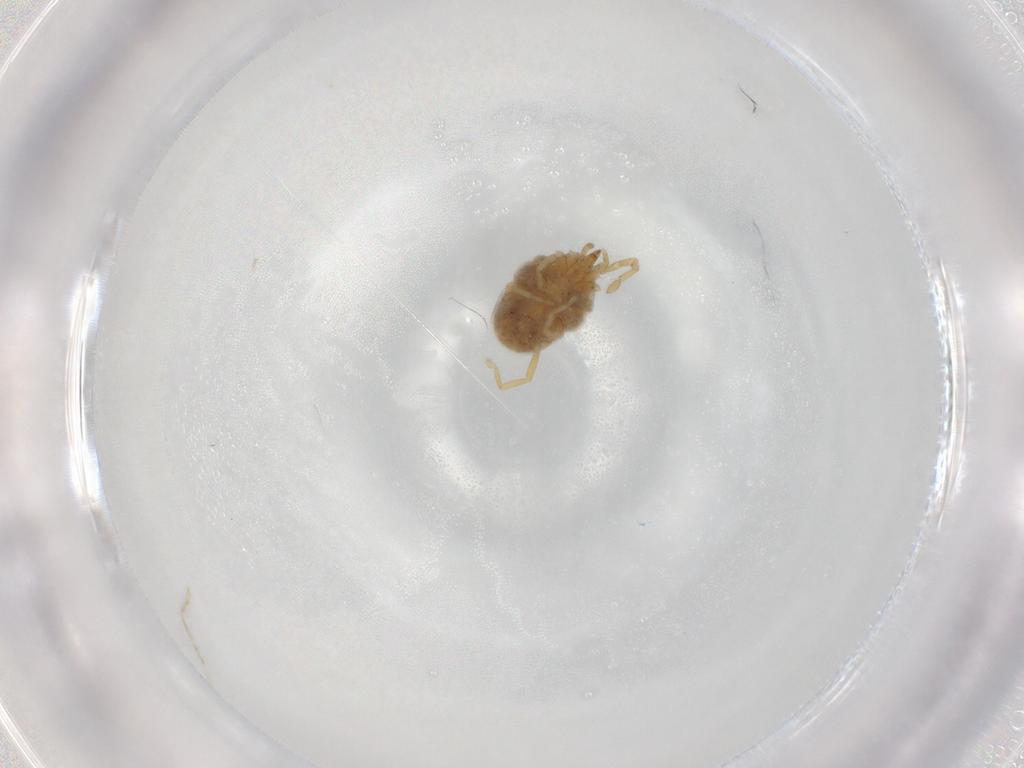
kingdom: Animalia
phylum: Arthropoda
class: Arachnida
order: Trombidiformes
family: Erythraeidae
